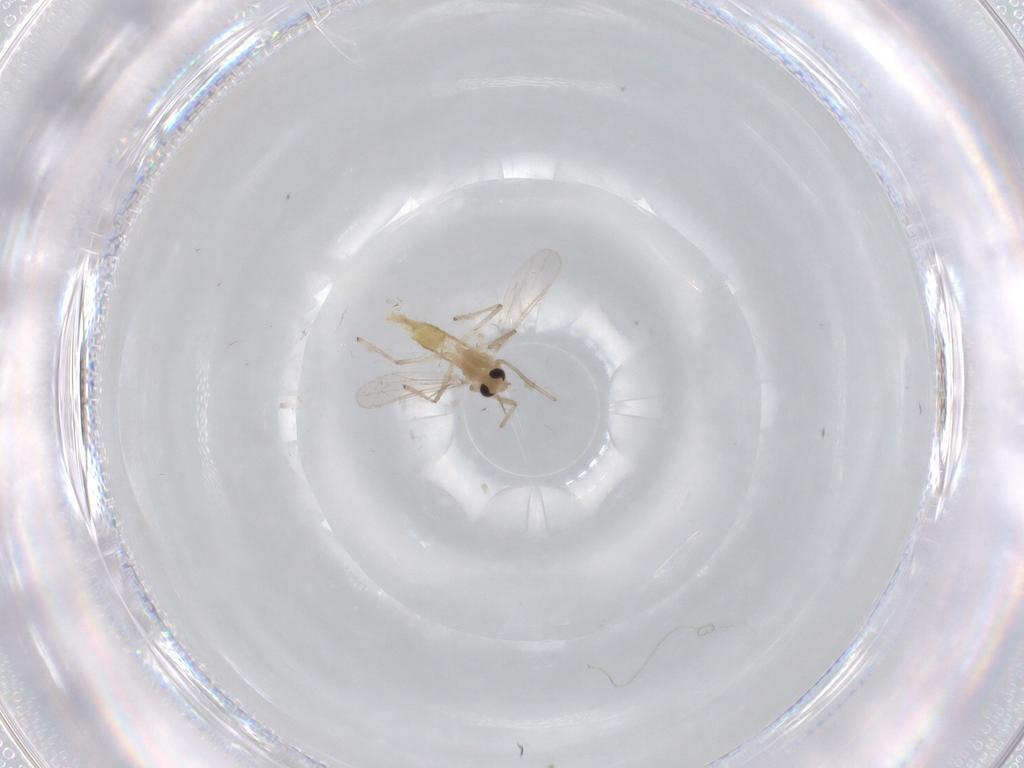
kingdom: Animalia
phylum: Arthropoda
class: Insecta
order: Diptera
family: Chironomidae
